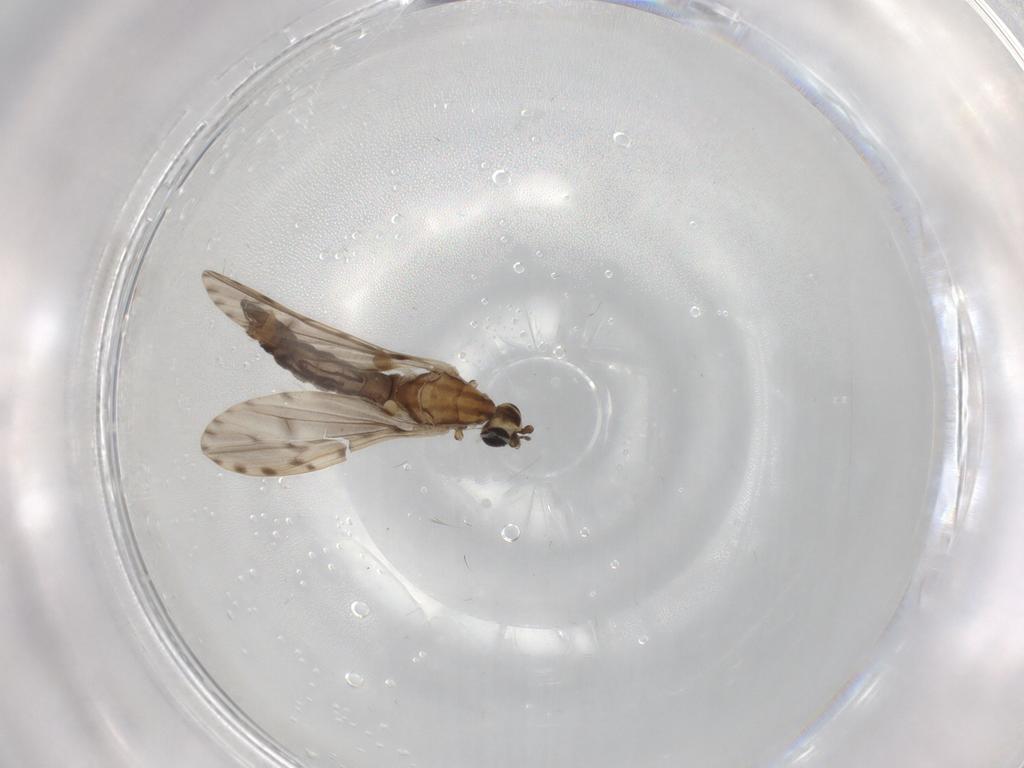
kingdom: Animalia
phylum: Arthropoda
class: Insecta
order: Diptera
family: Limoniidae
